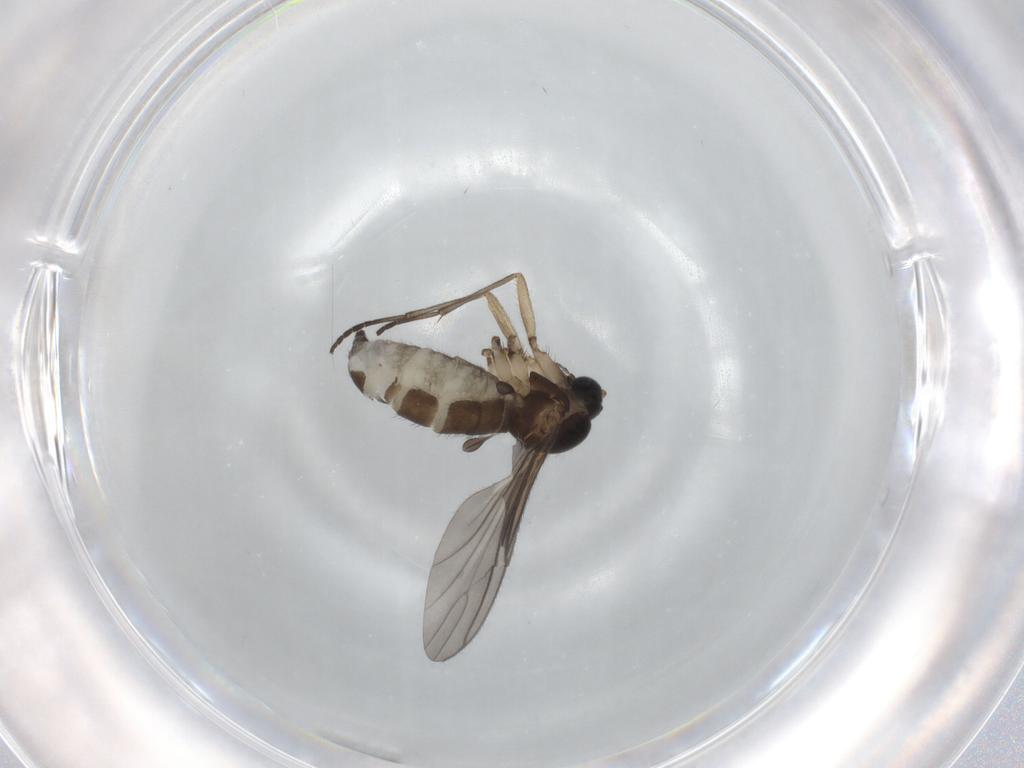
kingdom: Animalia
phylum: Arthropoda
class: Insecta
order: Diptera
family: Sciaridae
